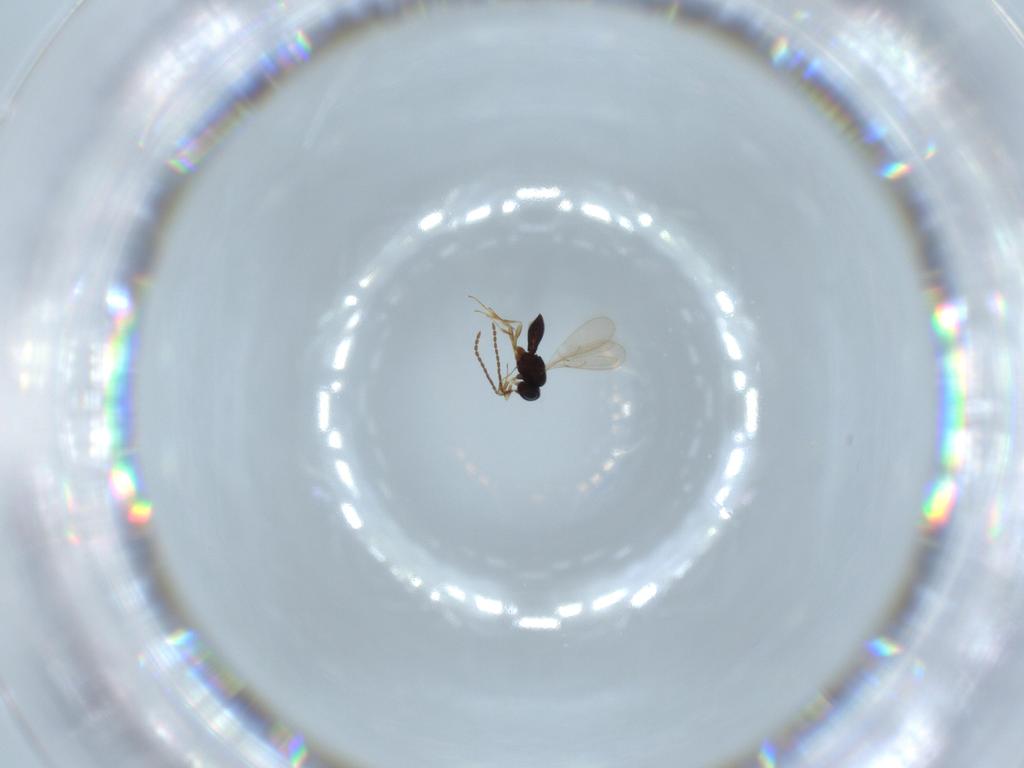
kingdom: Animalia
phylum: Arthropoda
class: Insecta
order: Hymenoptera
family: Scelionidae
